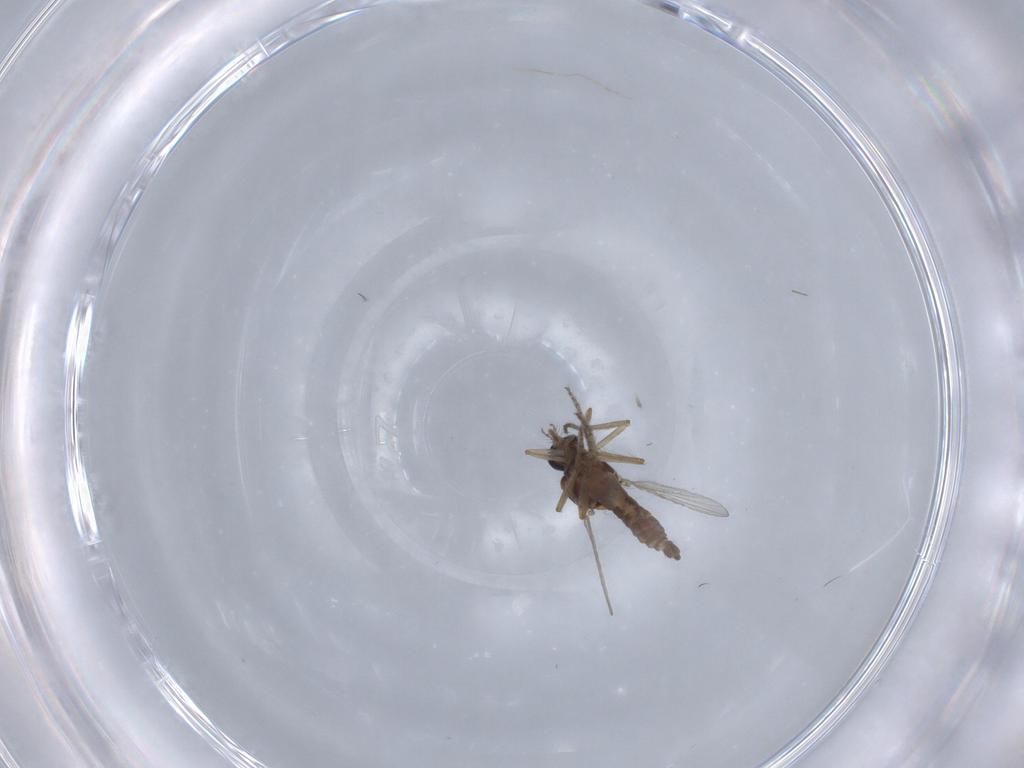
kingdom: Animalia
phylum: Arthropoda
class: Insecta
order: Diptera
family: Ceratopogonidae
